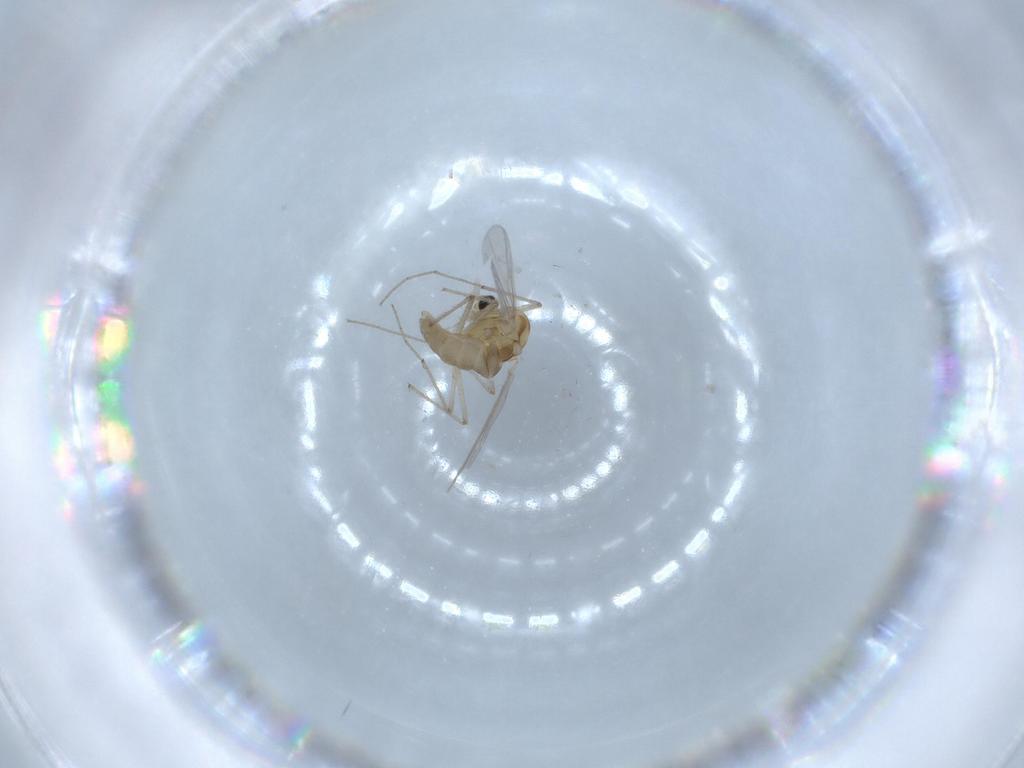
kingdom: Animalia
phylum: Arthropoda
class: Insecta
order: Diptera
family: Chironomidae
